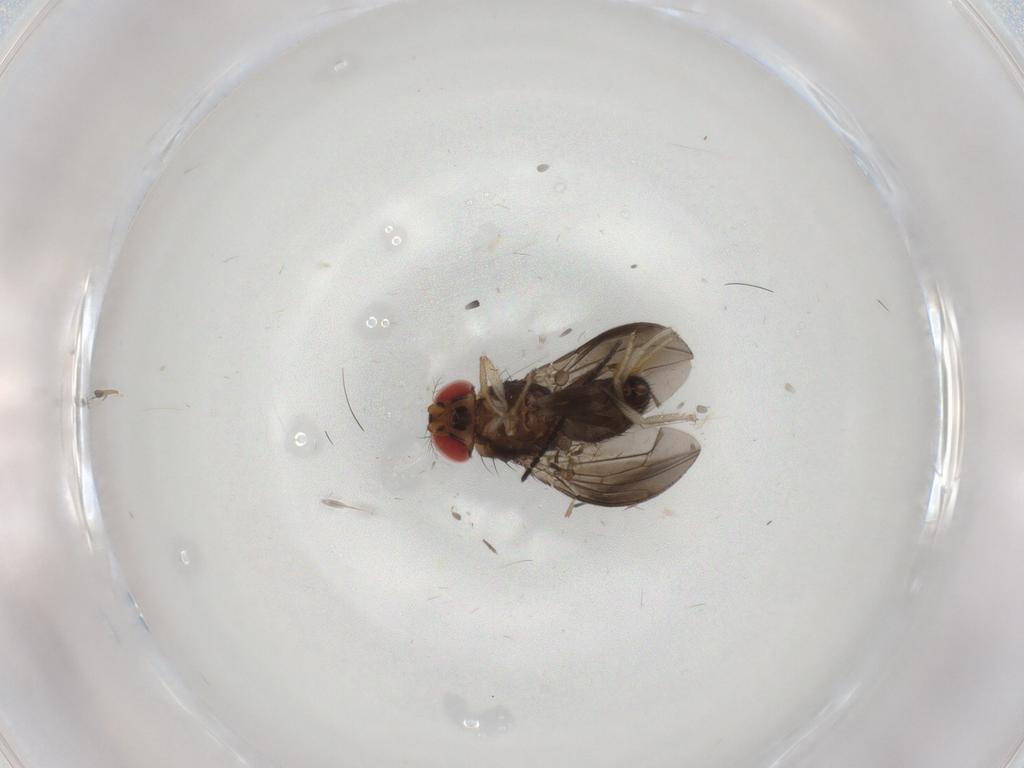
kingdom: Animalia
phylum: Arthropoda
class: Insecta
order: Diptera
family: Sciaridae
